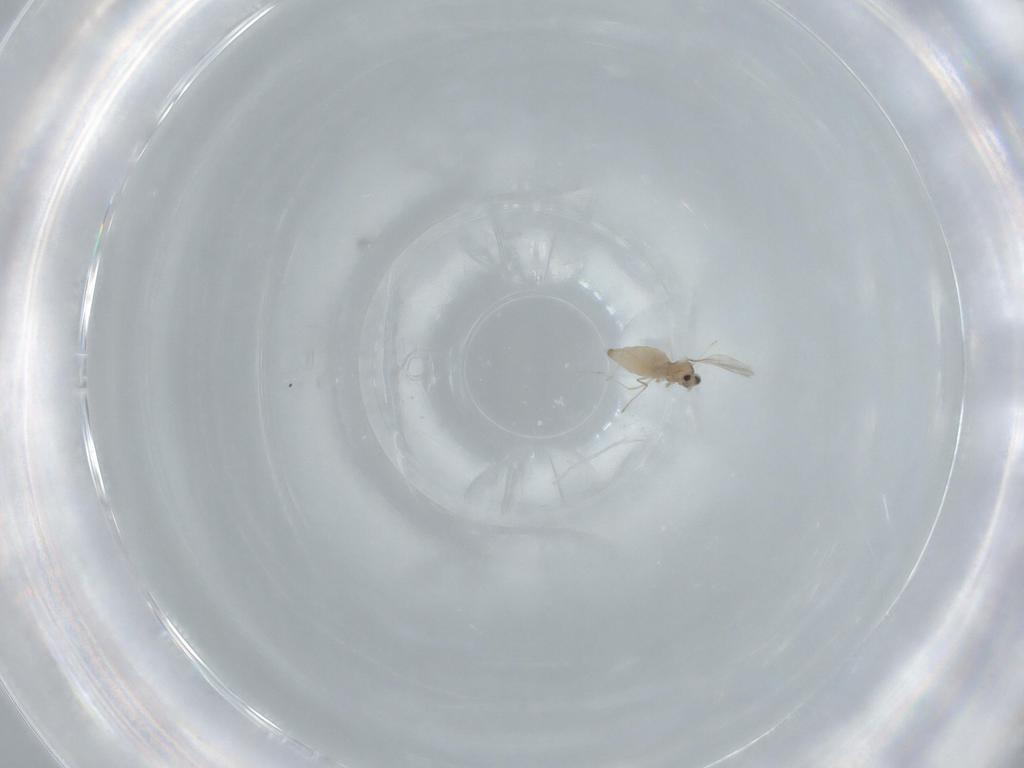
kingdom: Animalia
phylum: Arthropoda
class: Insecta
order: Diptera
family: Cecidomyiidae
